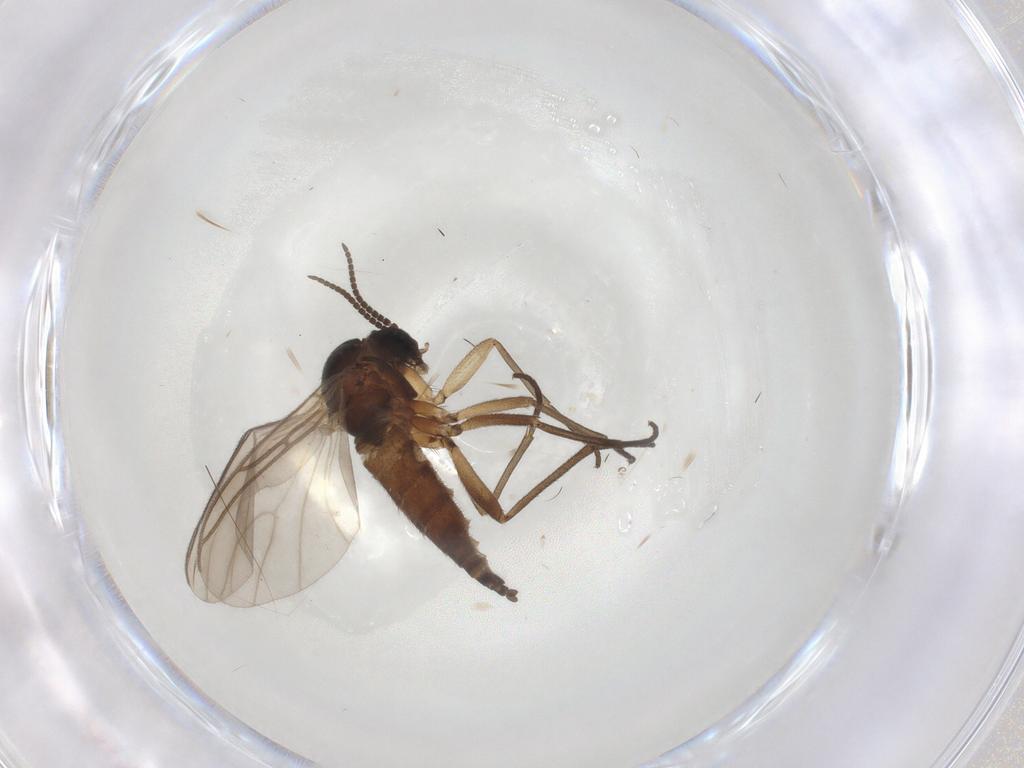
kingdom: Animalia
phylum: Arthropoda
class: Insecta
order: Diptera
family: Sciaridae
